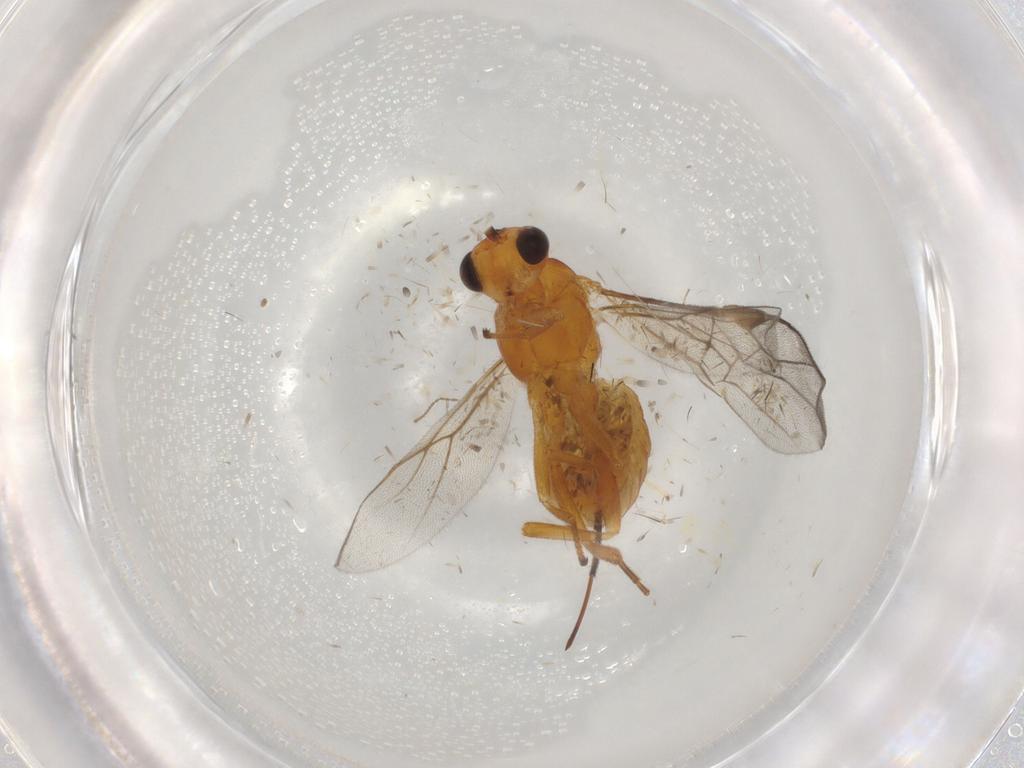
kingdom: Animalia
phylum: Arthropoda
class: Insecta
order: Hymenoptera
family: Braconidae
